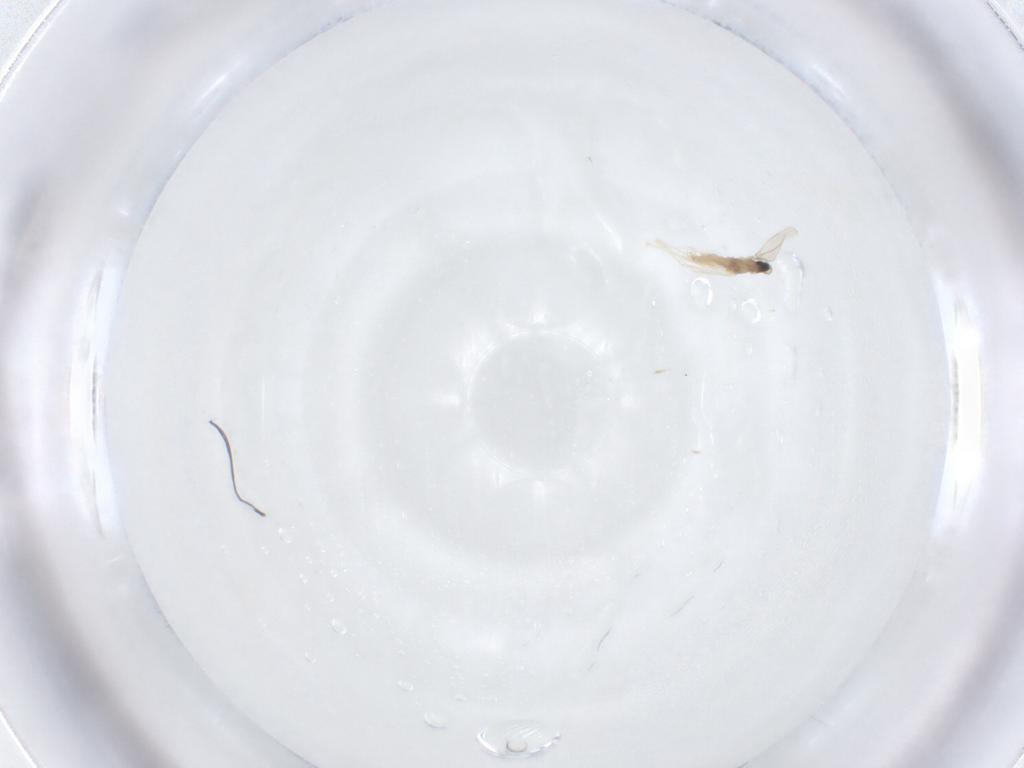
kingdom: Animalia
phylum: Arthropoda
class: Insecta
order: Diptera
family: Cecidomyiidae
